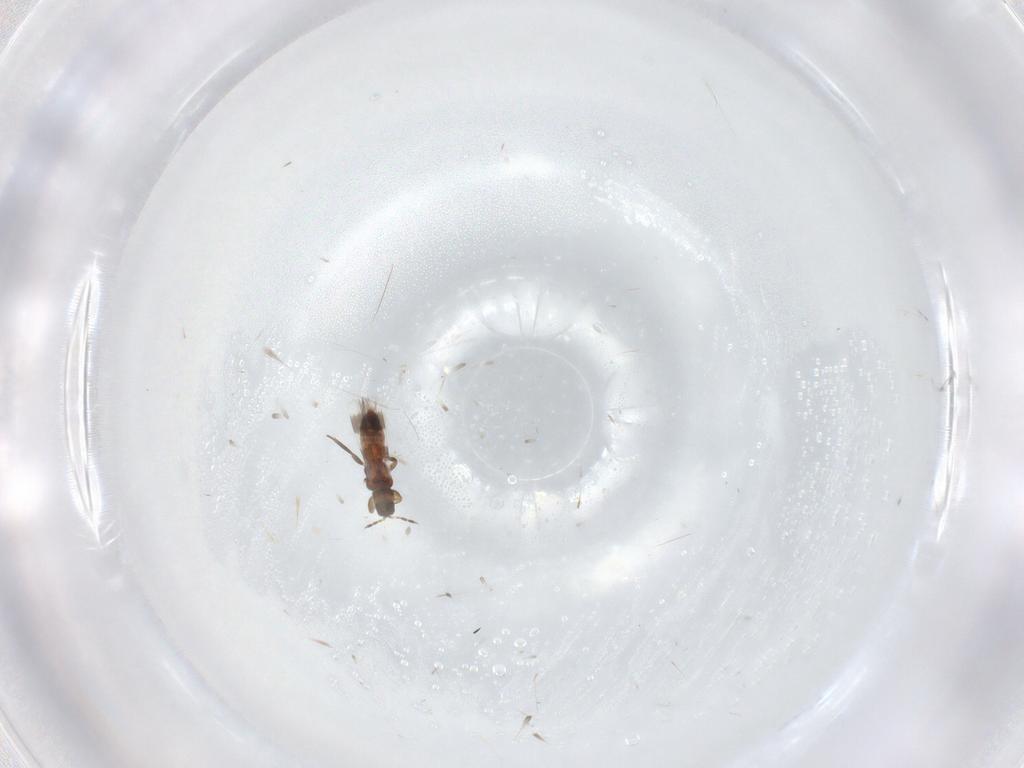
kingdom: Animalia
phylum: Arthropoda
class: Insecta
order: Thysanoptera
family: Aeolothripidae
